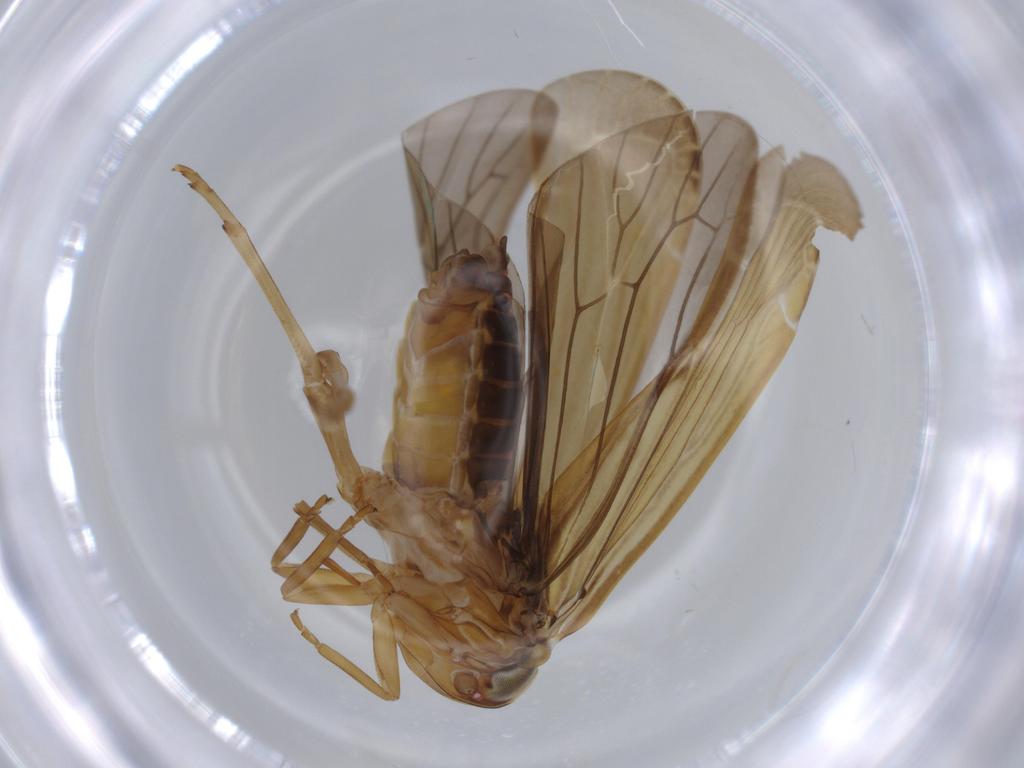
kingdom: Animalia
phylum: Arthropoda
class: Insecta
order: Hemiptera
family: Achilidae
